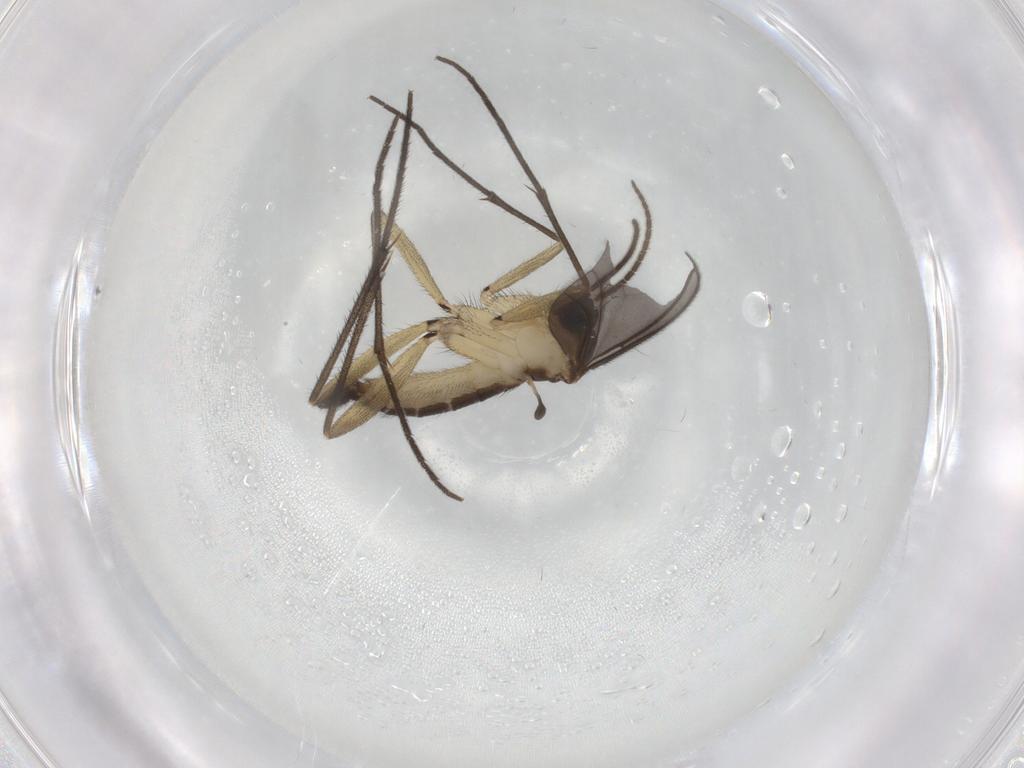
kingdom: Animalia
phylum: Arthropoda
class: Insecta
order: Diptera
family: Sciaridae
